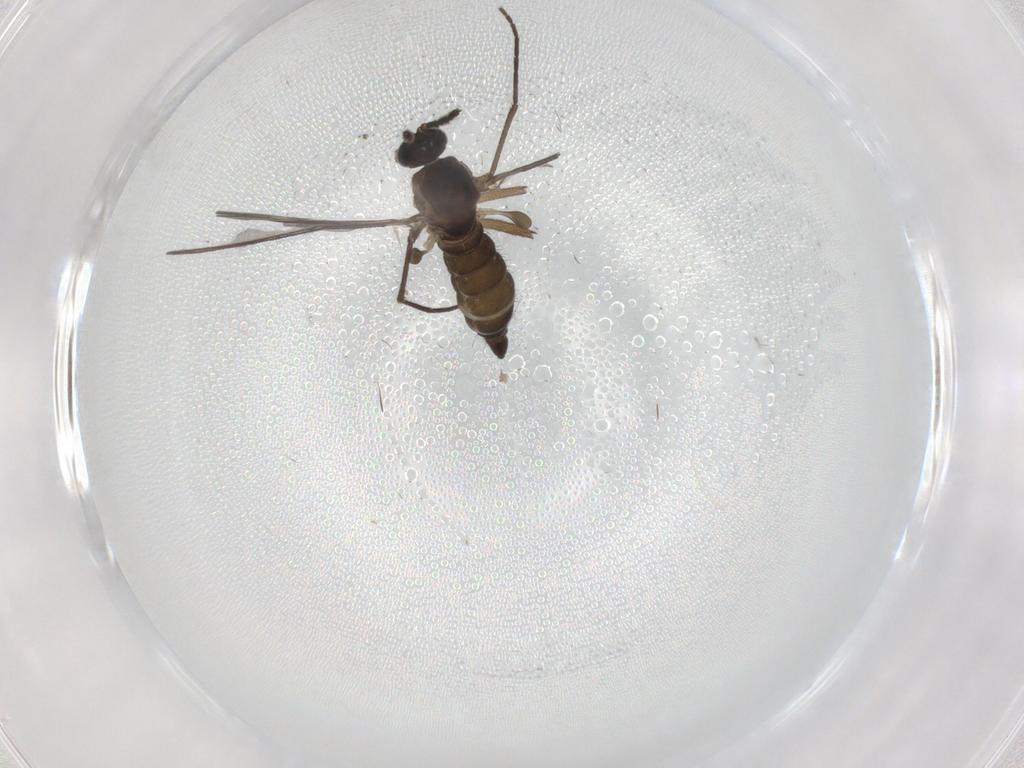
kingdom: Animalia
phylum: Arthropoda
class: Insecta
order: Diptera
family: Sciaridae
